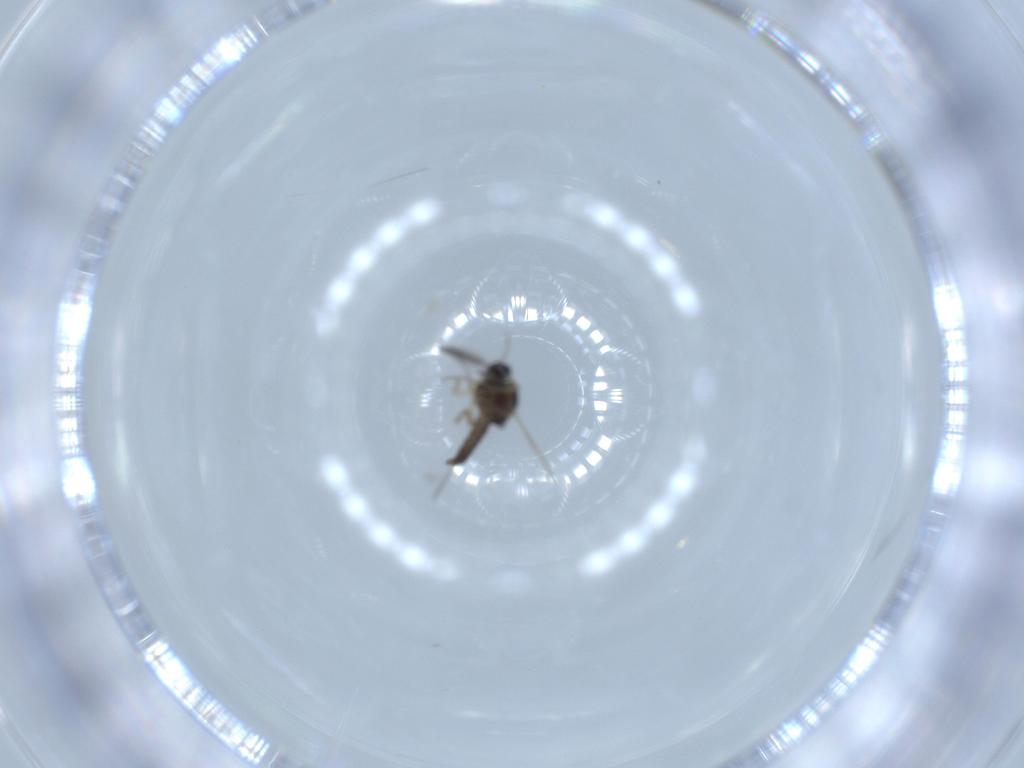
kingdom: Animalia
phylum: Arthropoda
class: Insecta
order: Diptera
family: Ceratopogonidae
